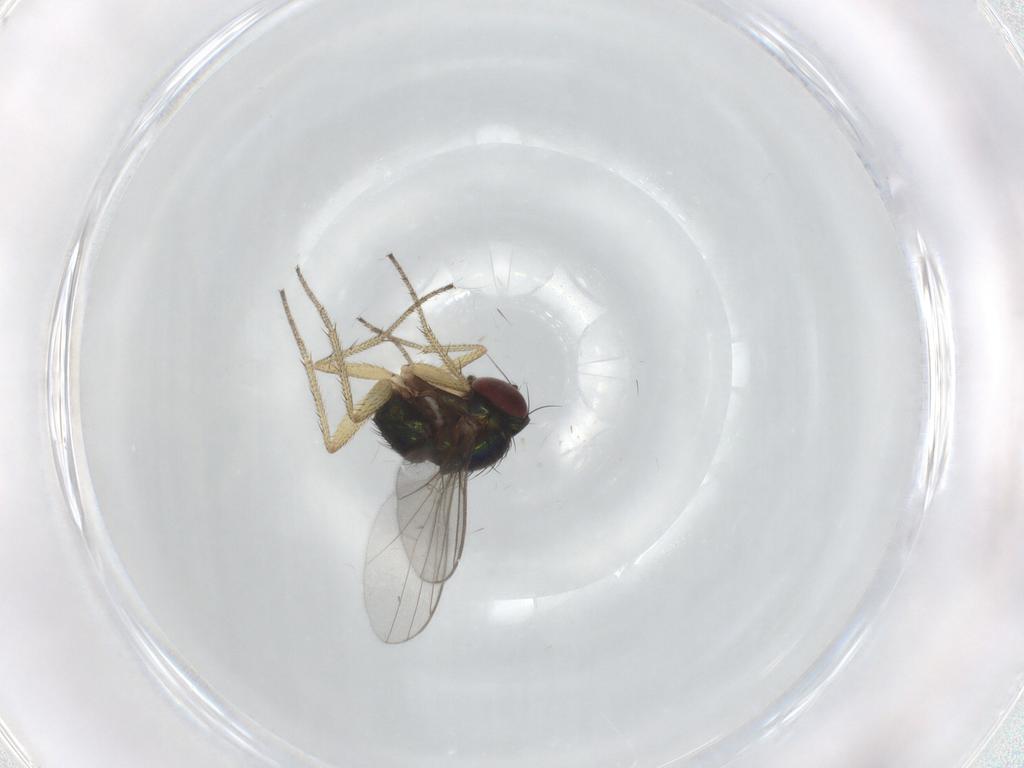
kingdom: Animalia
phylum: Arthropoda
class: Insecta
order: Diptera
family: Dolichopodidae
